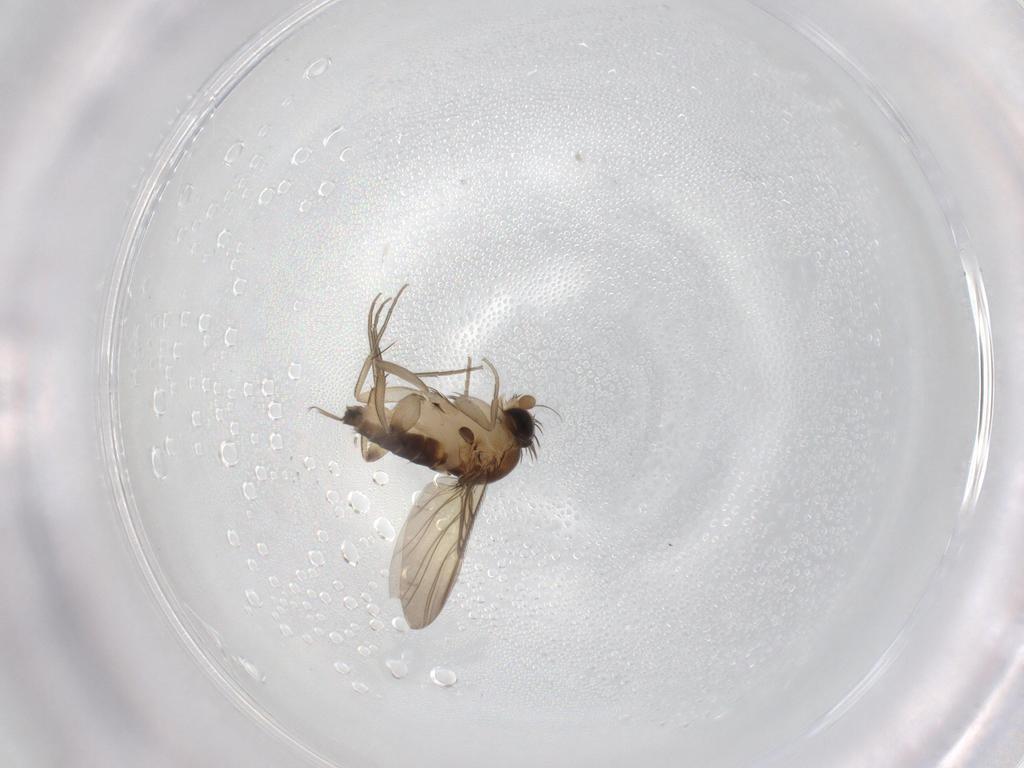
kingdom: Animalia
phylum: Arthropoda
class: Insecta
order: Diptera
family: Phoridae
